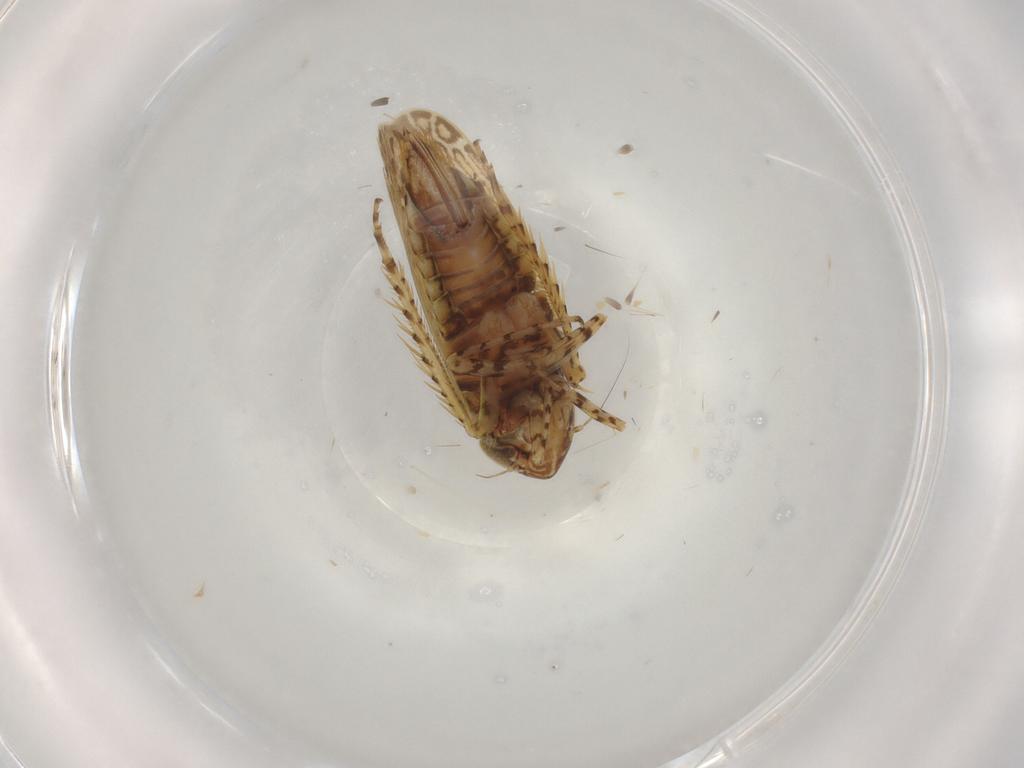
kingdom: Animalia
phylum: Arthropoda
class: Insecta
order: Hemiptera
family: Cicadellidae
